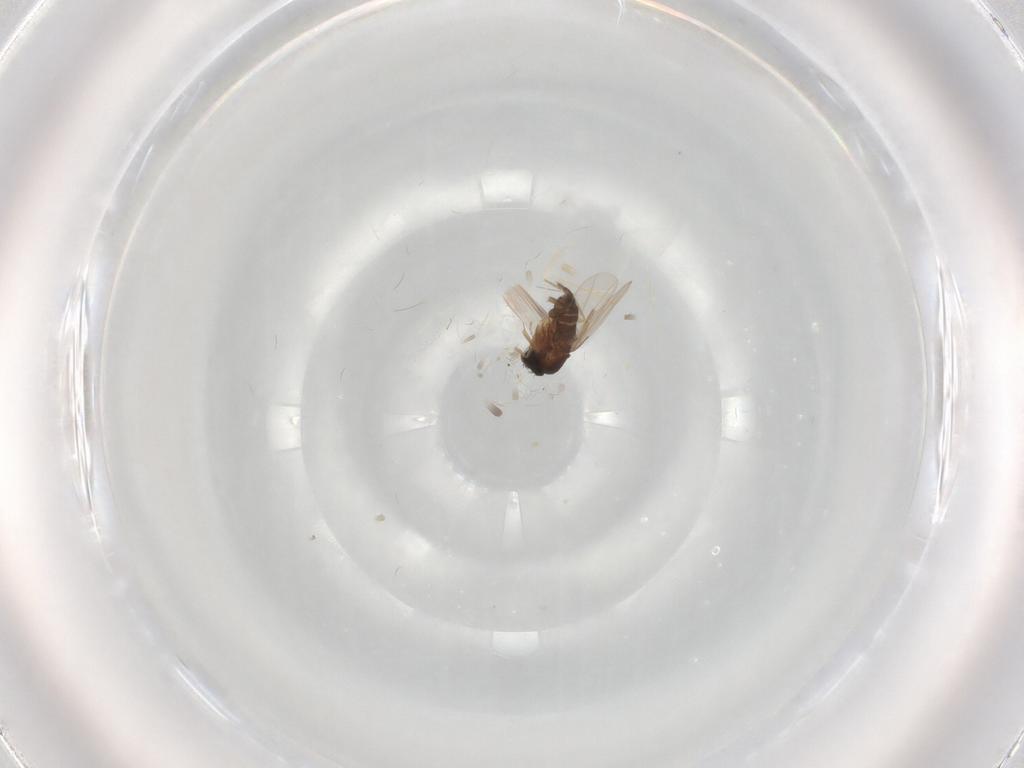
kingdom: Animalia
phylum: Arthropoda
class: Insecta
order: Diptera
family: Phoridae
